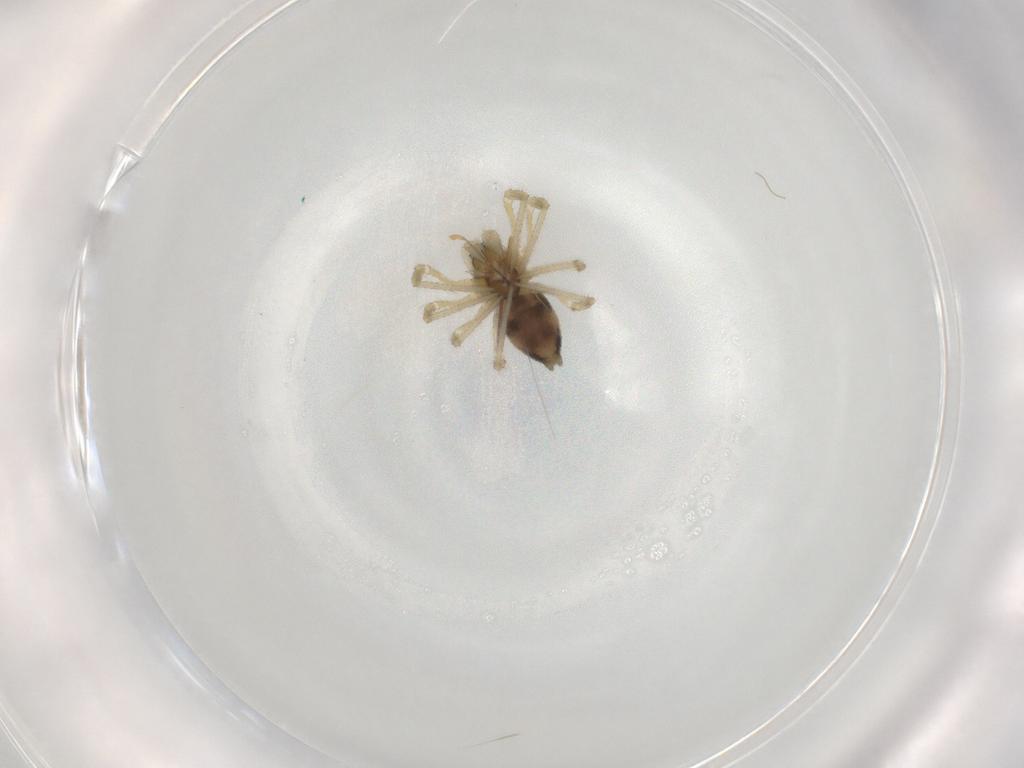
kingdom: Animalia
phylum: Arthropoda
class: Arachnida
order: Araneae
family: Linyphiidae
